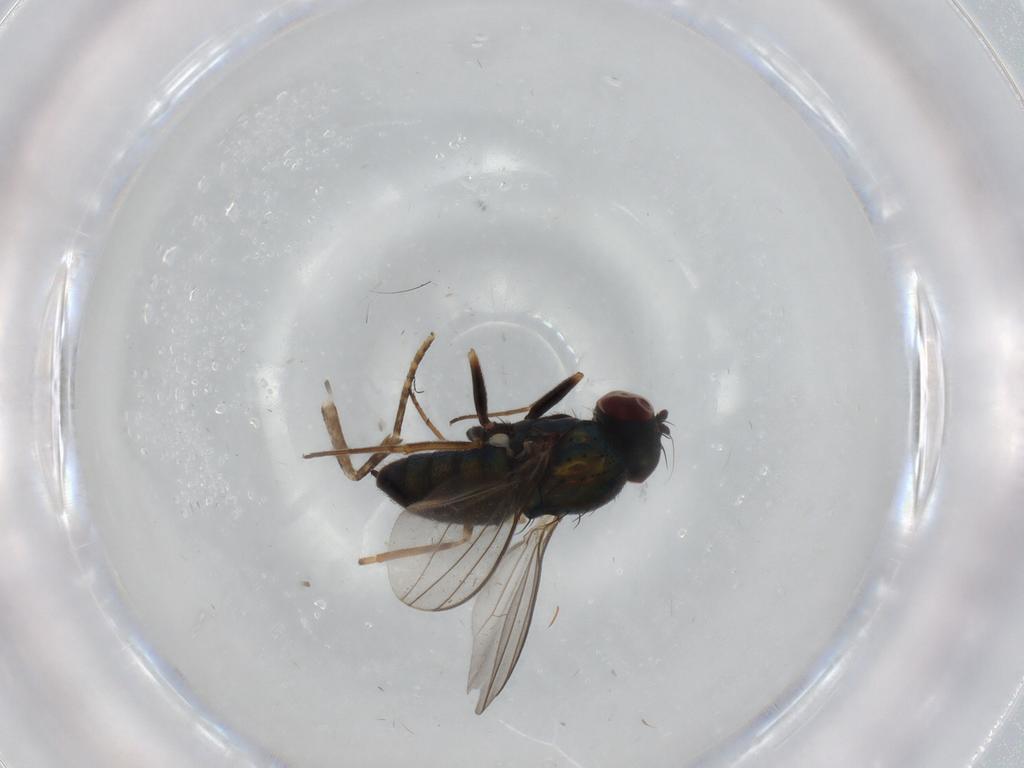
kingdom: Animalia
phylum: Arthropoda
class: Insecta
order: Diptera
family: Dolichopodidae
